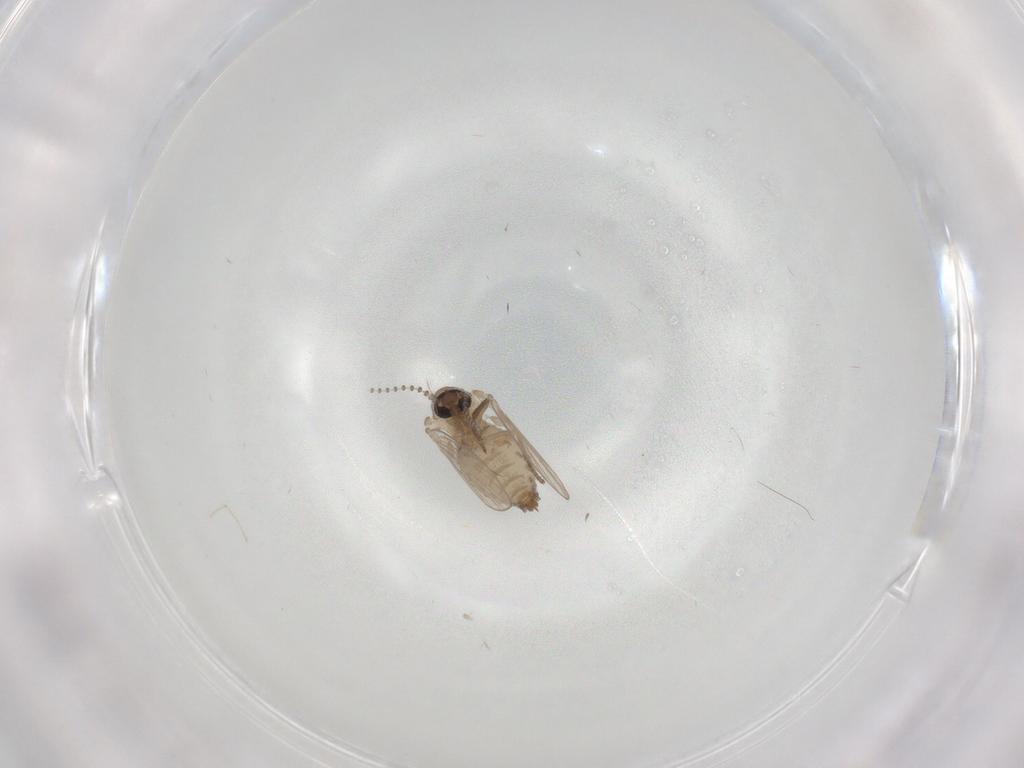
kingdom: Animalia
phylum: Arthropoda
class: Insecta
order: Diptera
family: Psychodidae
